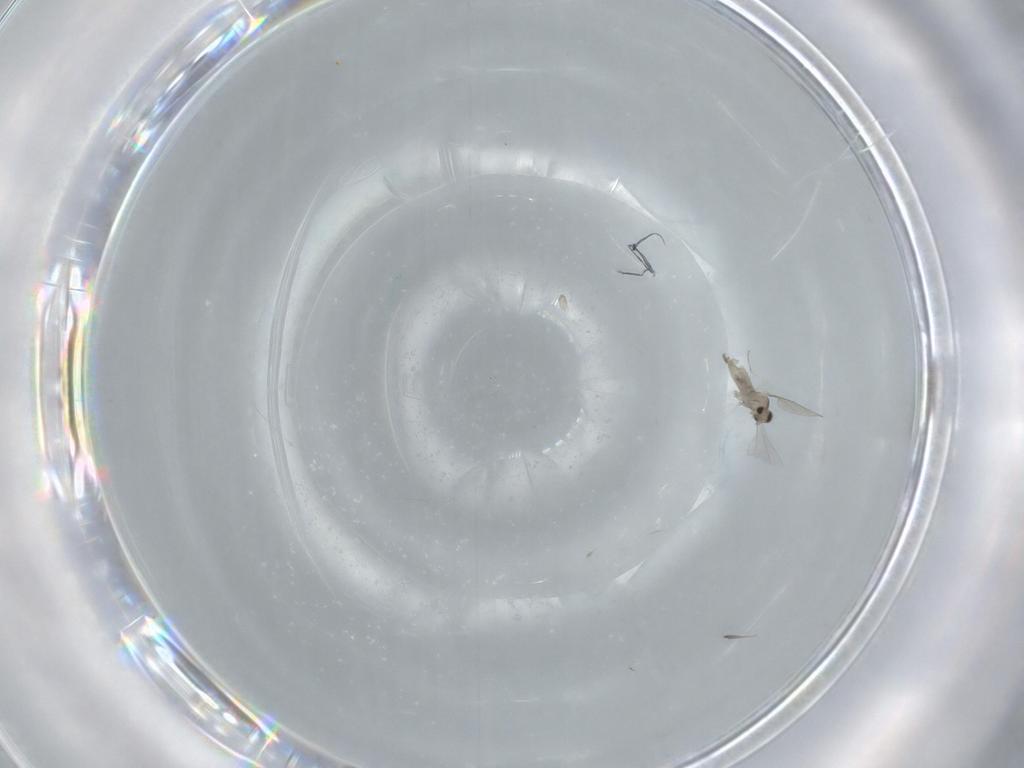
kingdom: Animalia
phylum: Arthropoda
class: Insecta
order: Diptera
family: Cecidomyiidae
